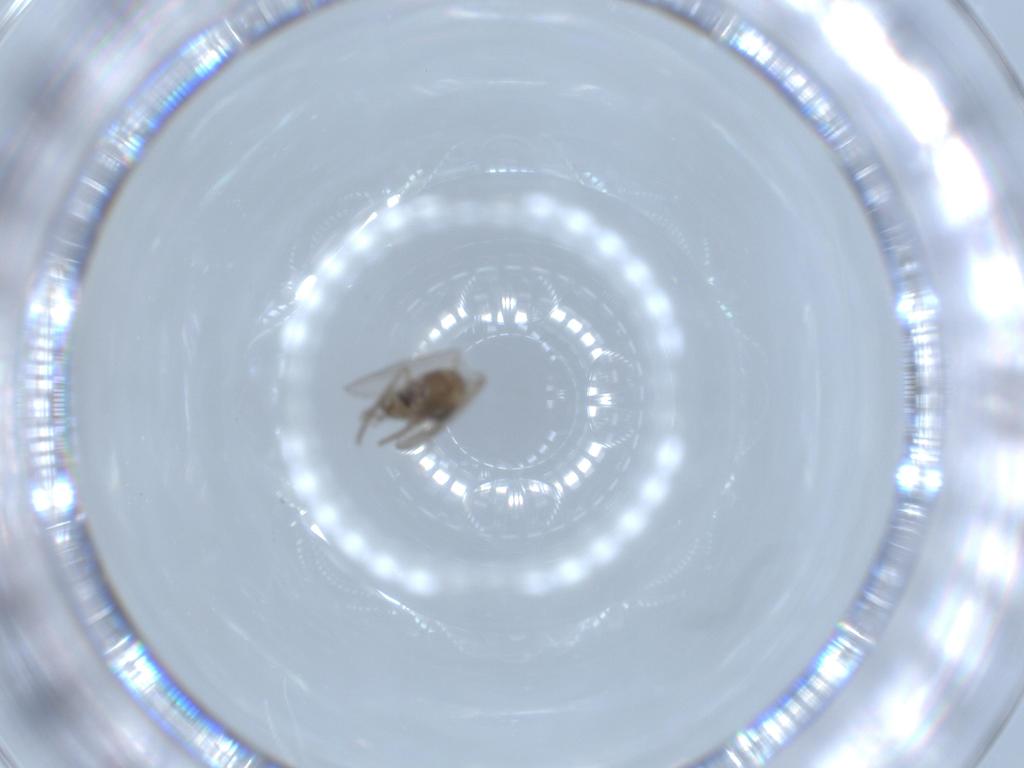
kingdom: Animalia
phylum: Arthropoda
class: Insecta
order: Diptera
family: Psychodidae
